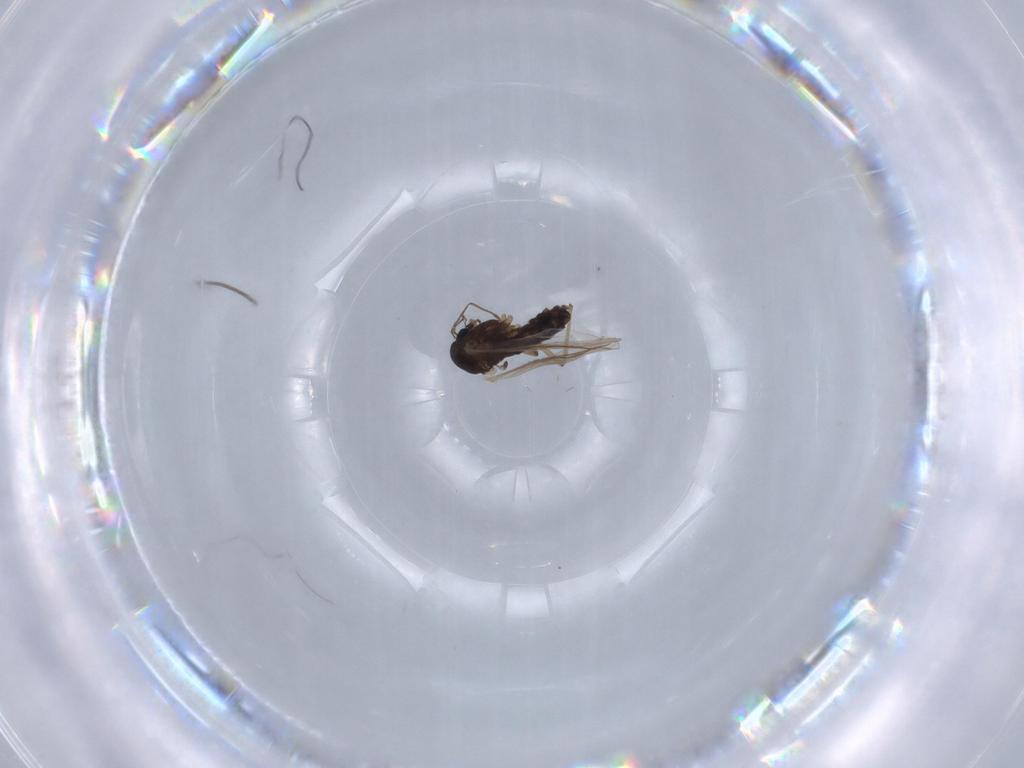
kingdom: Animalia
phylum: Arthropoda
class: Insecta
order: Diptera
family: Chironomidae
